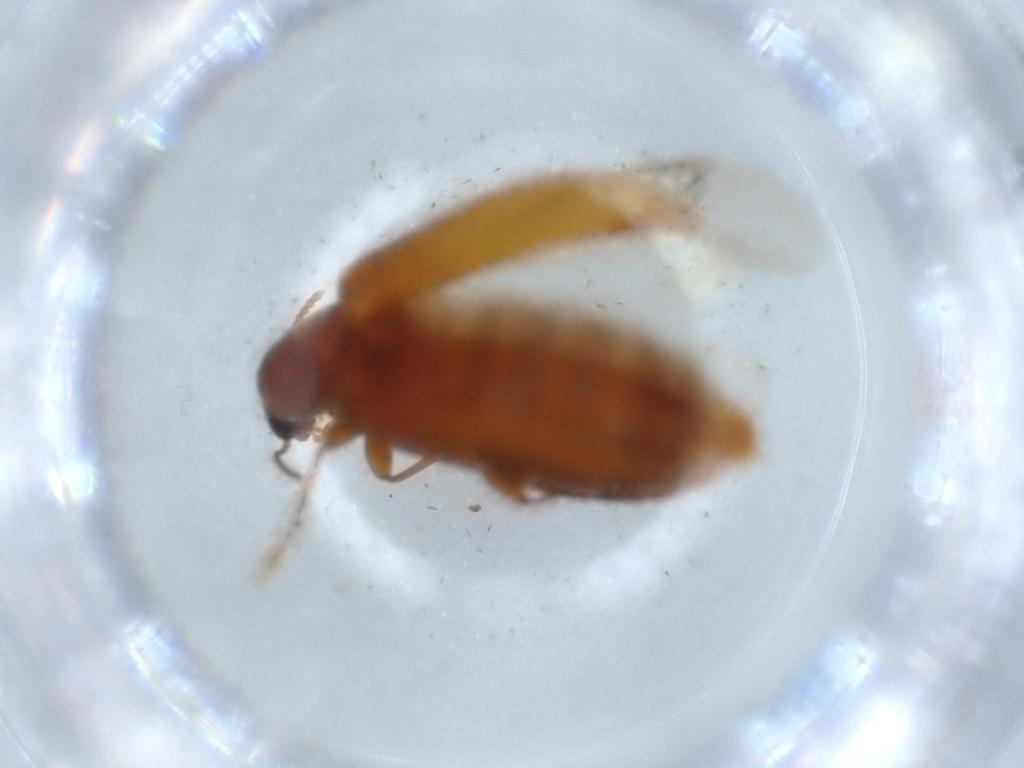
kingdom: Animalia
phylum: Arthropoda
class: Insecta
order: Coleoptera
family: Mycteridae
